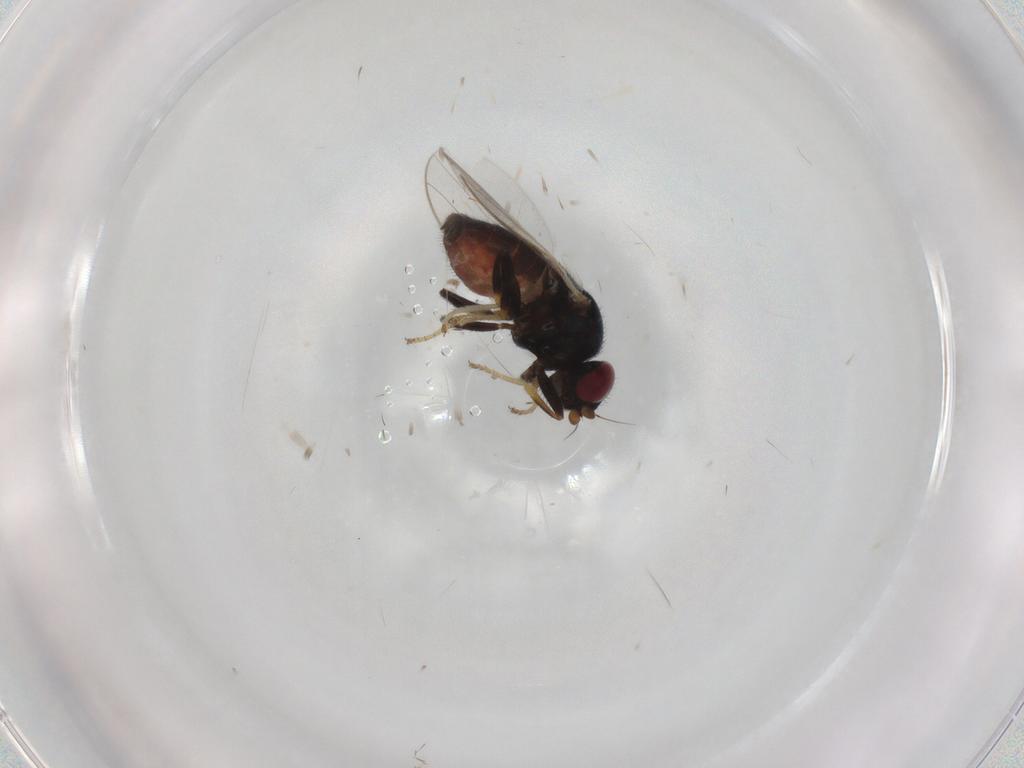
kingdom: Animalia
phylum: Arthropoda
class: Insecta
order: Diptera
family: Chloropidae
